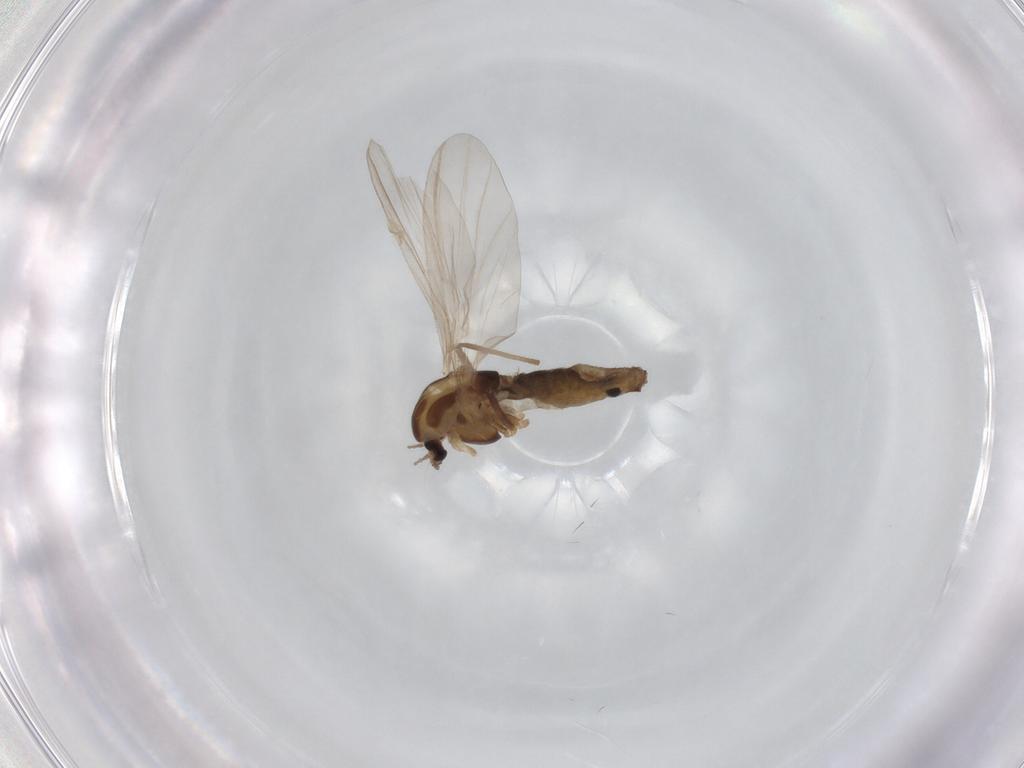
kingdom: Animalia
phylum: Arthropoda
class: Insecta
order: Diptera
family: Chironomidae
